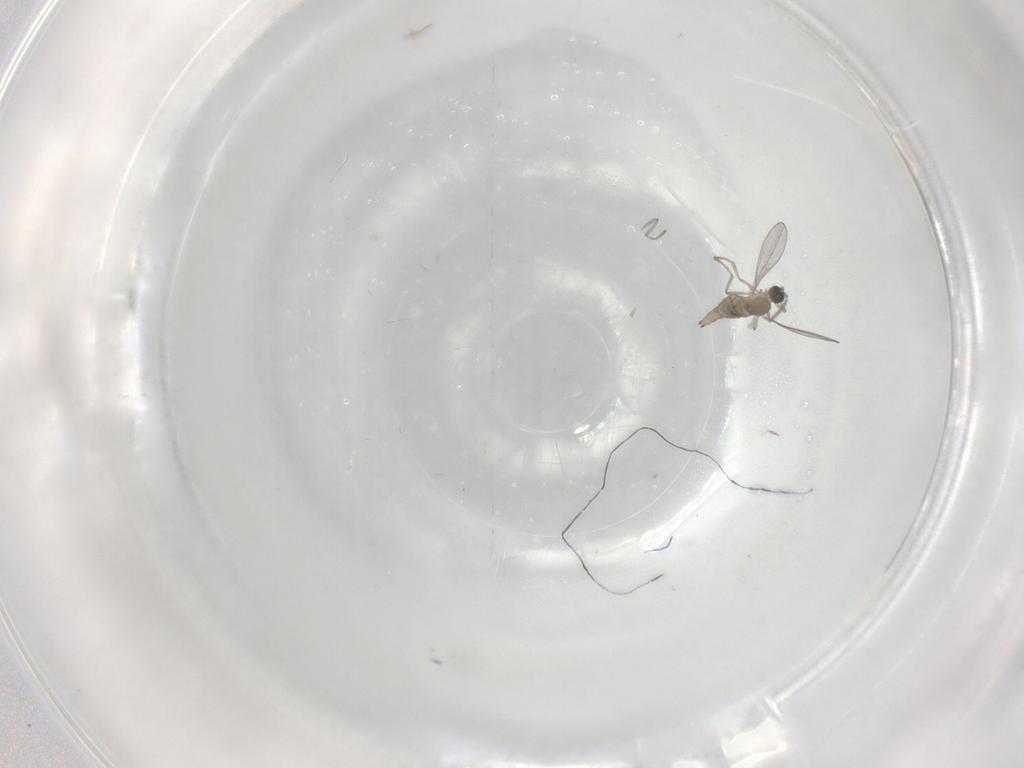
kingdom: Animalia
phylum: Arthropoda
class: Insecta
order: Diptera
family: Cecidomyiidae
